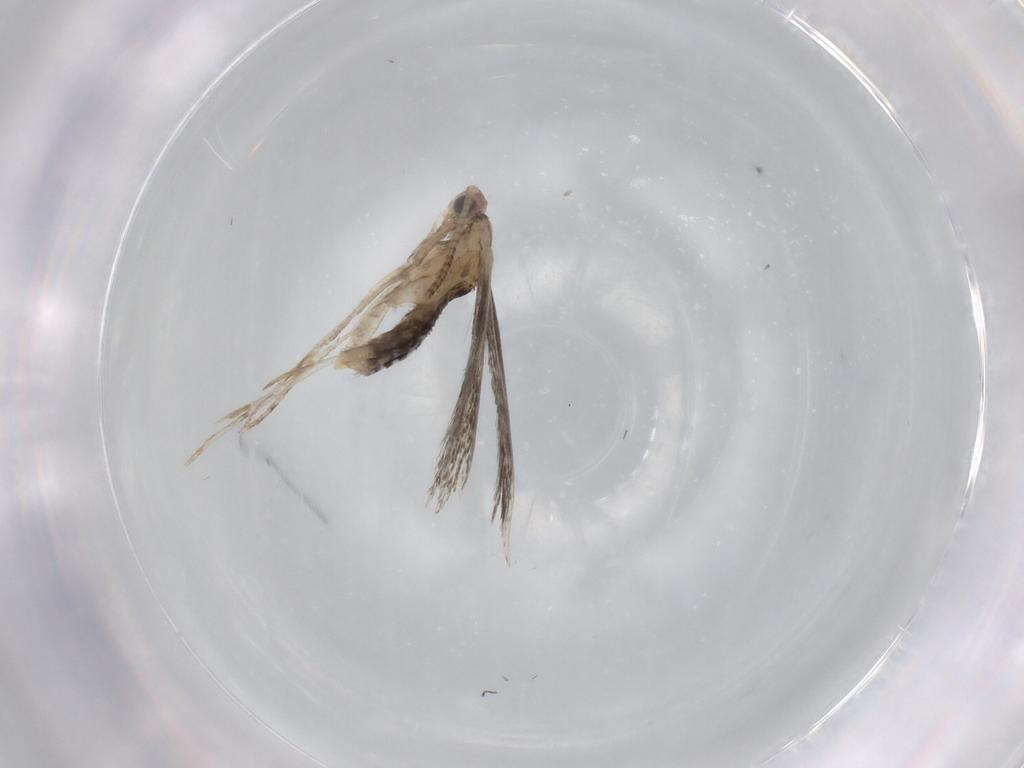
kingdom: Animalia
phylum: Arthropoda
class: Insecta
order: Lepidoptera
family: Tineidae
